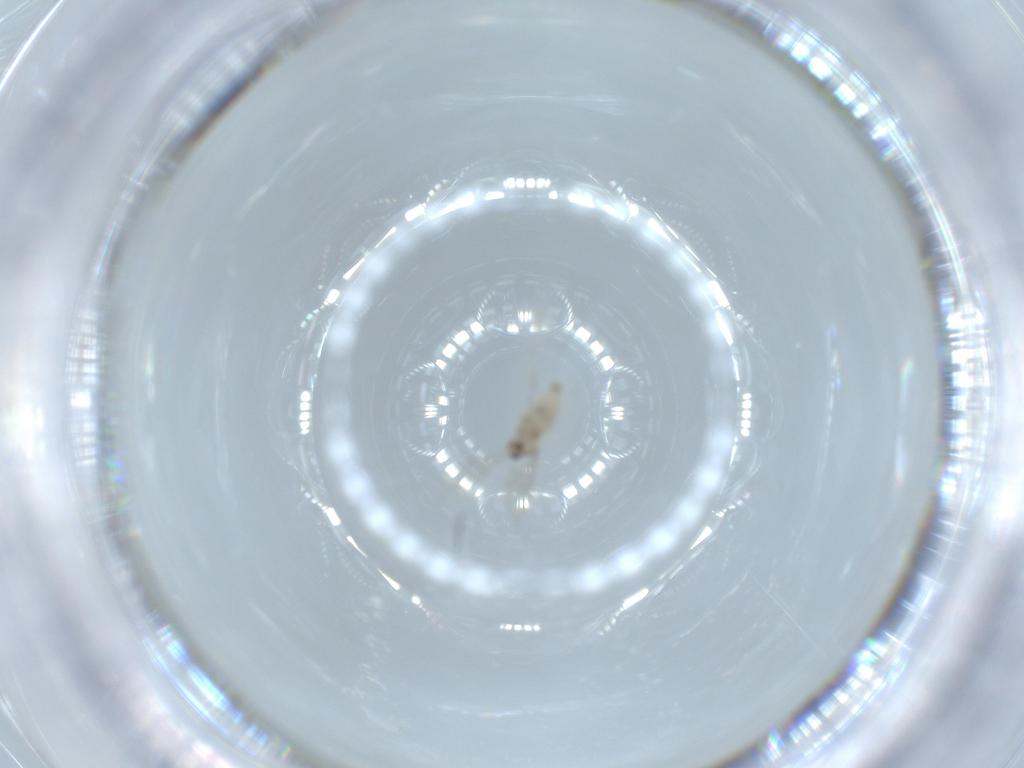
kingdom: Animalia
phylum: Arthropoda
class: Insecta
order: Diptera
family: Cecidomyiidae
